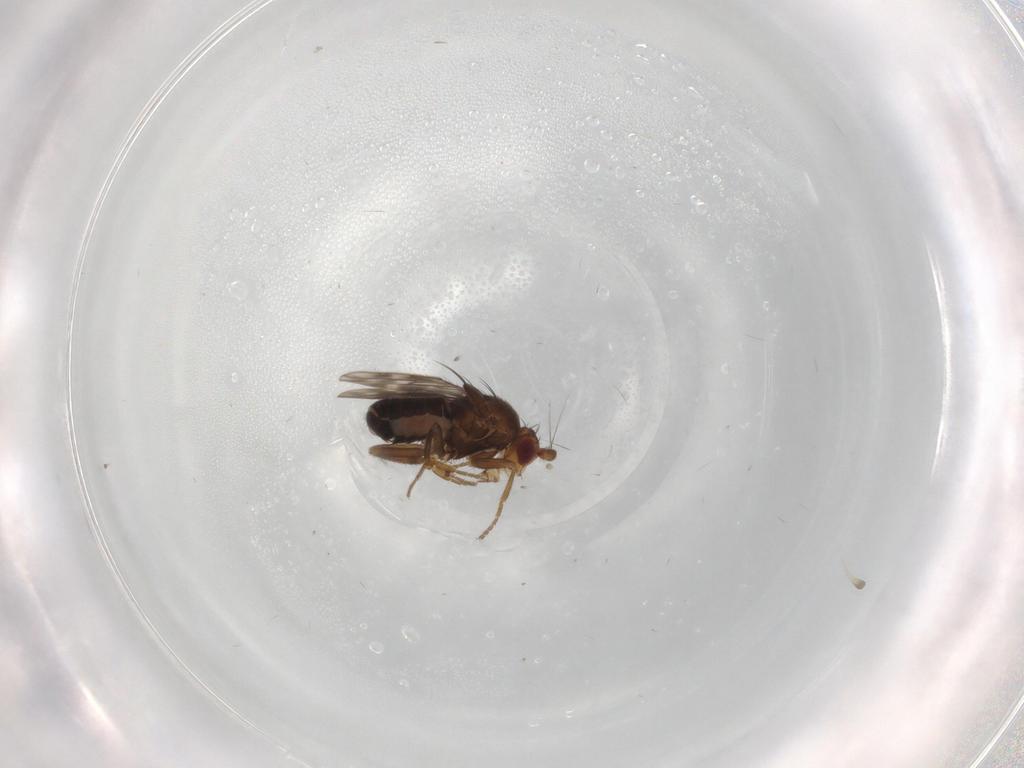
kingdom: Animalia
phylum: Arthropoda
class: Insecta
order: Diptera
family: Sphaeroceridae
